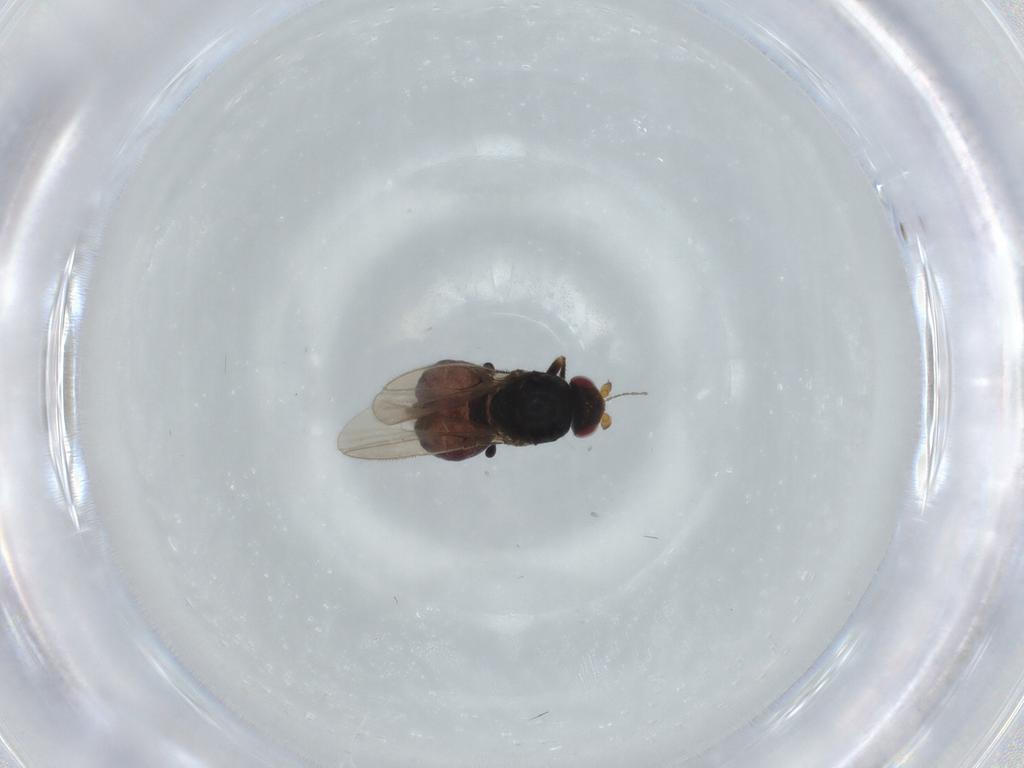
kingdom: Animalia
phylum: Arthropoda
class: Insecta
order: Diptera
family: Sphaeroceridae
